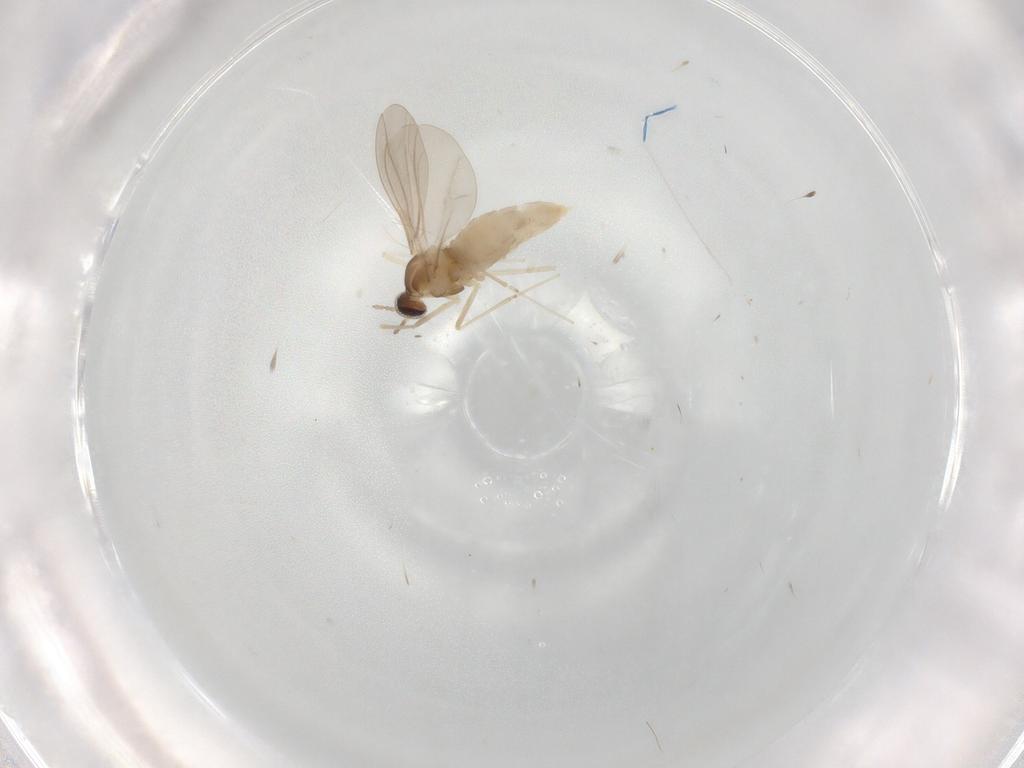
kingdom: Animalia
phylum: Arthropoda
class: Insecta
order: Diptera
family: Cecidomyiidae
